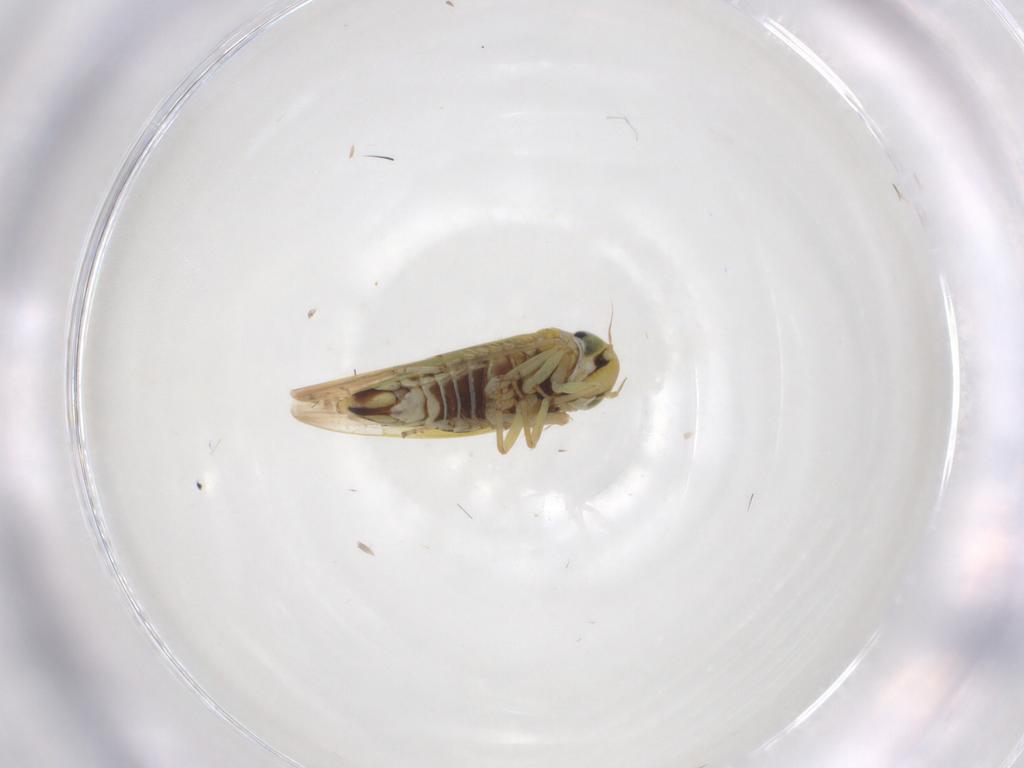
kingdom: Animalia
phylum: Arthropoda
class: Insecta
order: Hemiptera
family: Cicadellidae
